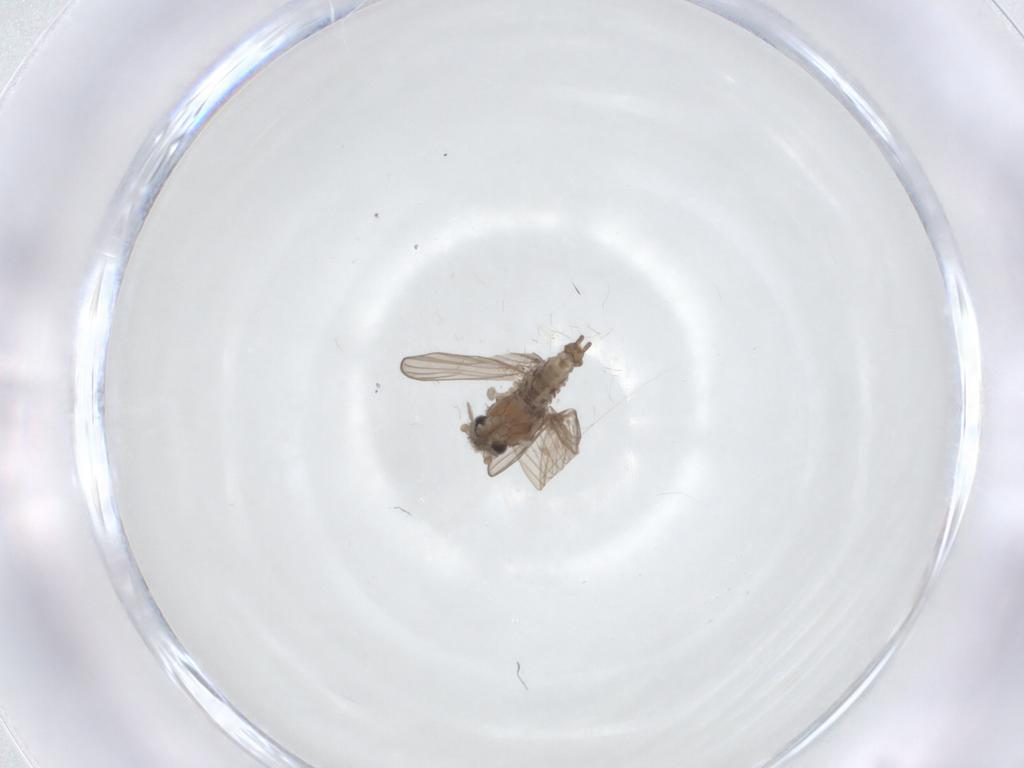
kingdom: Animalia
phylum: Arthropoda
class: Insecta
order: Diptera
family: Psychodidae
